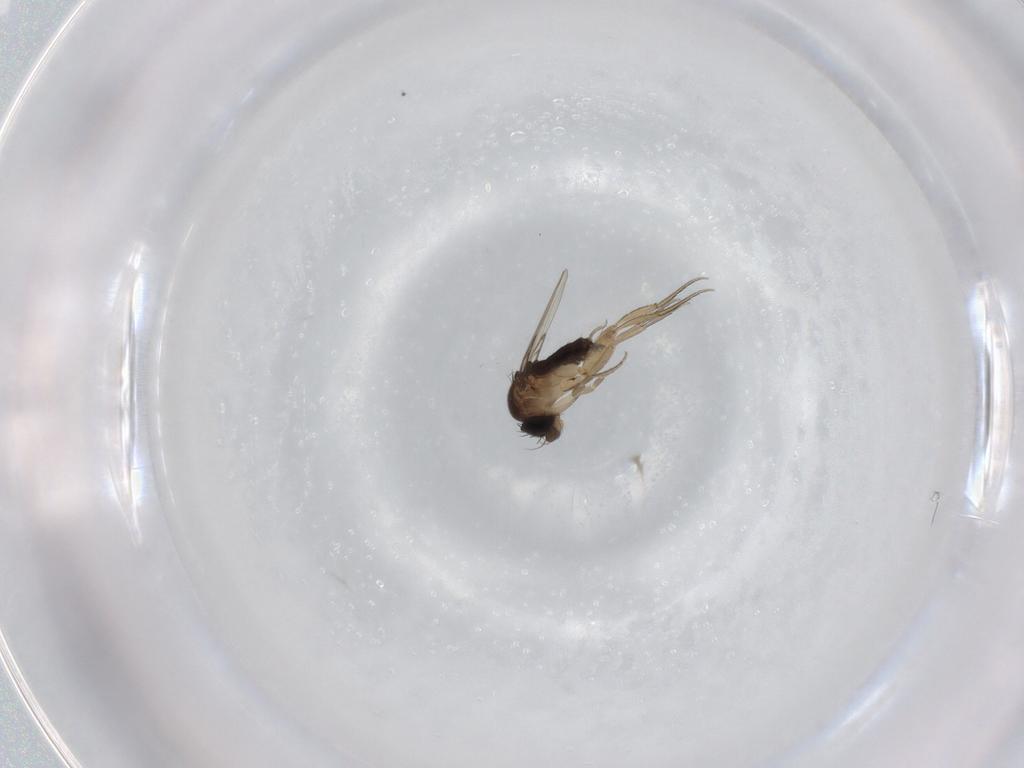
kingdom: Animalia
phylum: Arthropoda
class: Insecta
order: Diptera
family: Phoridae
